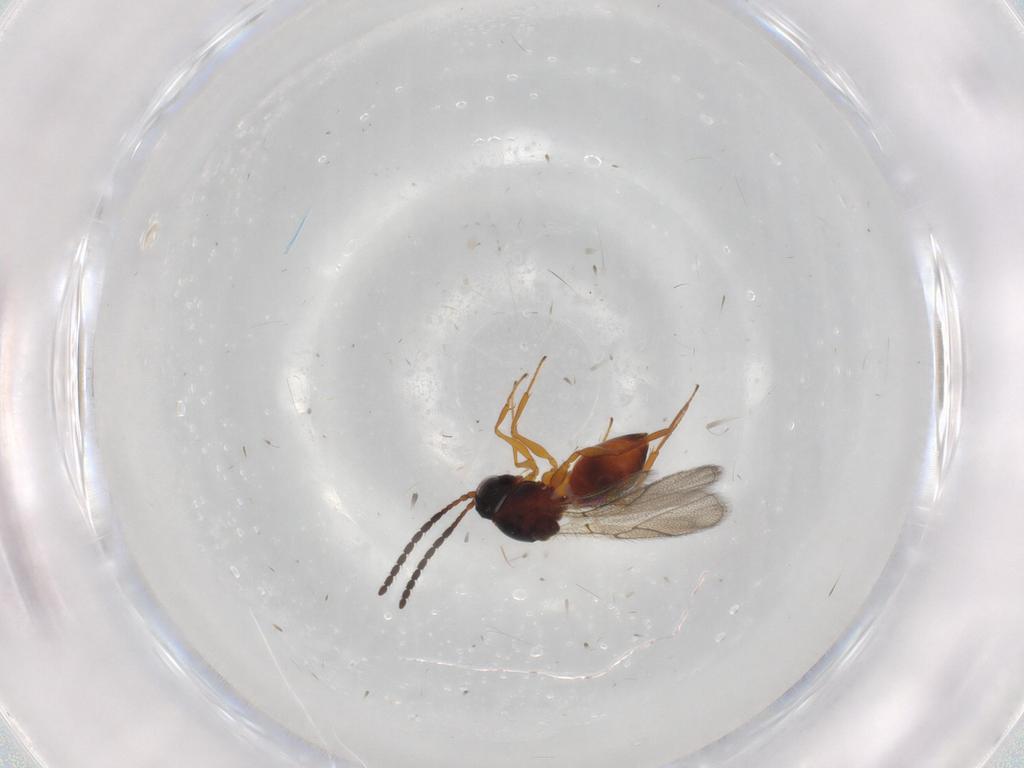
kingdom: Animalia
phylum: Arthropoda
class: Insecta
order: Hymenoptera
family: Figitidae
